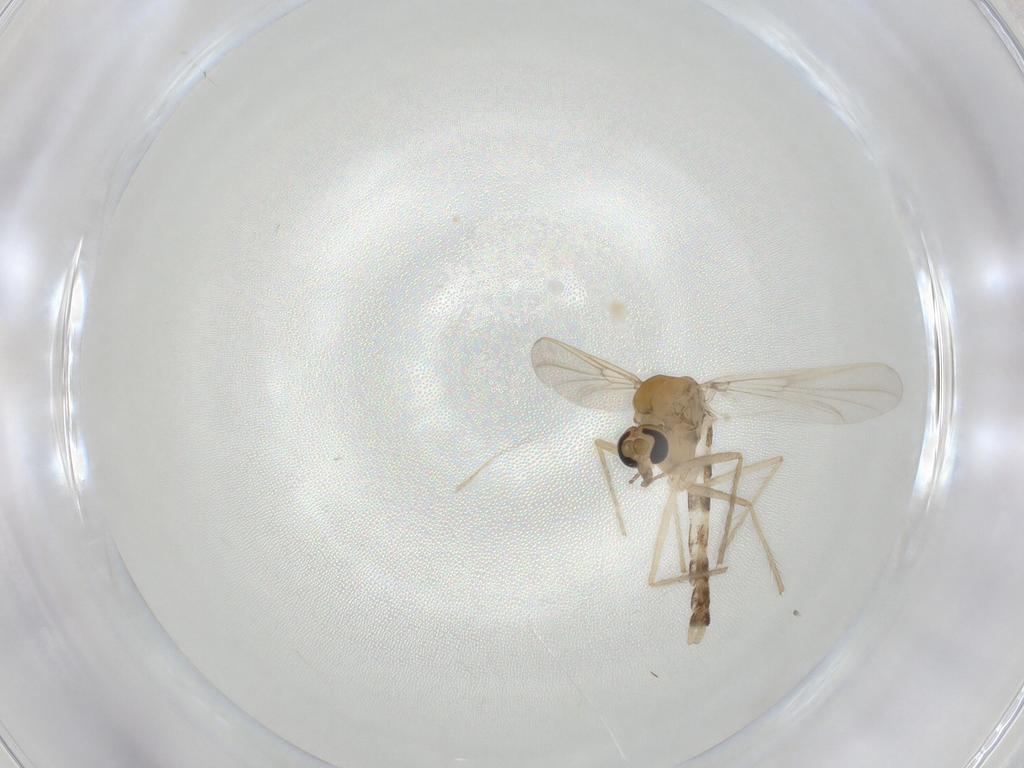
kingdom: Animalia
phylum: Arthropoda
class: Insecta
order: Diptera
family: Chironomidae
